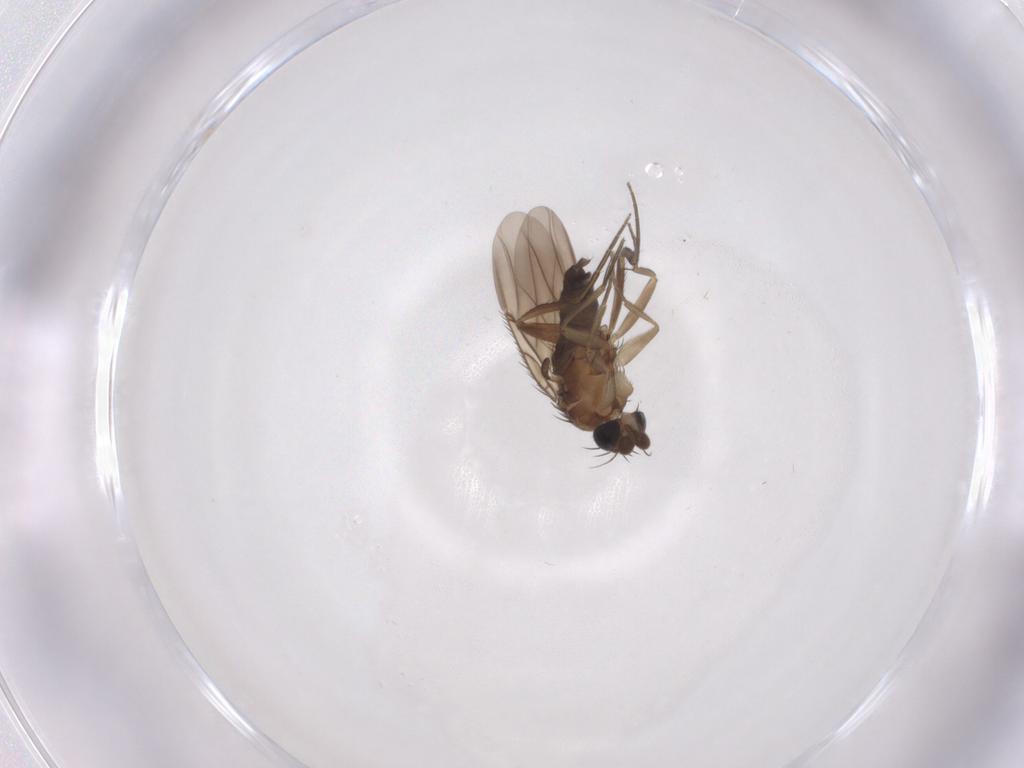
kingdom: Animalia
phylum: Arthropoda
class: Insecta
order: Diptera
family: Phoridae
